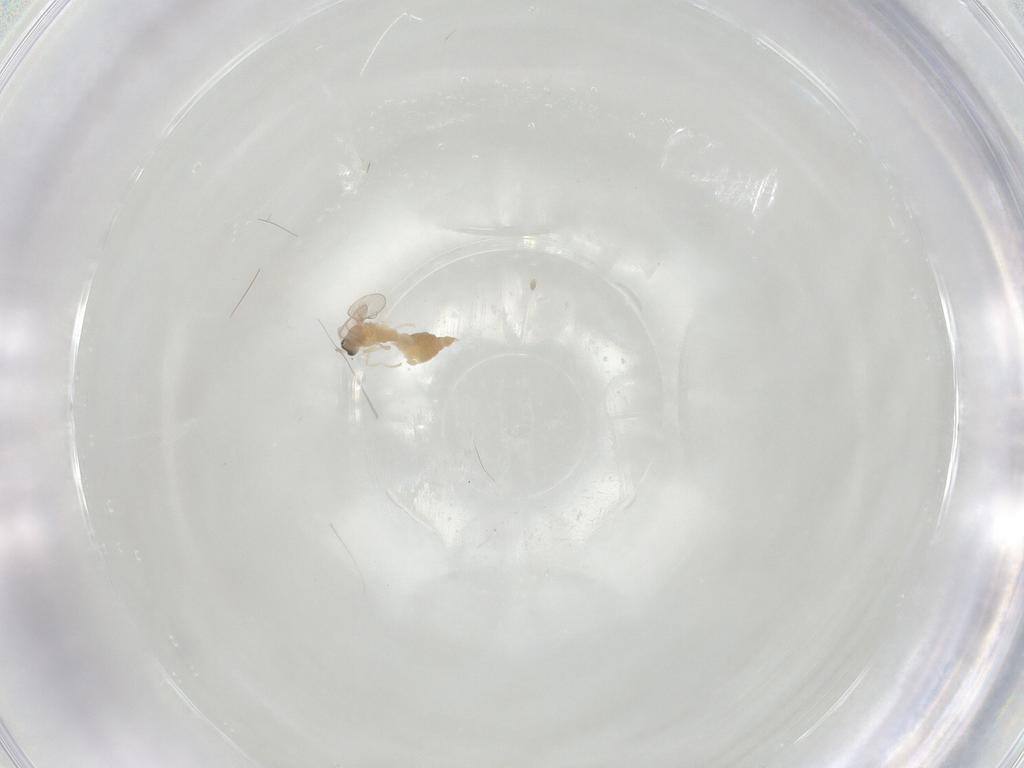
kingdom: Animalia
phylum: Arthropoda
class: Insecta
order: Diptera
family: Cecidomyiidae
